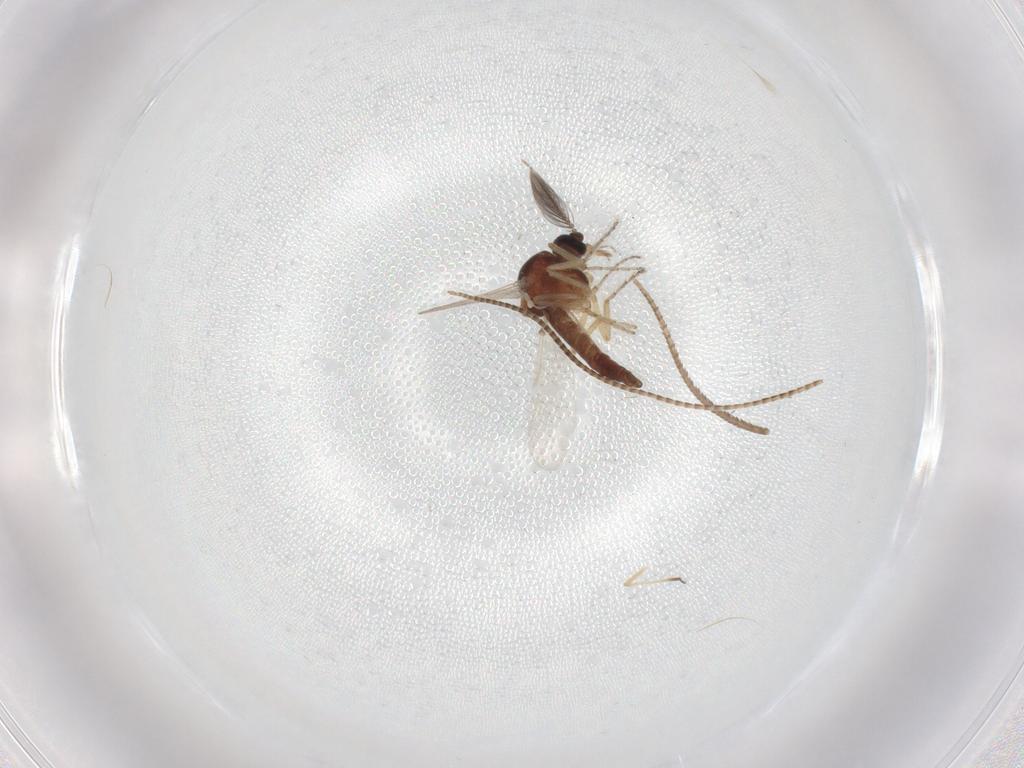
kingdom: Animalia
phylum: Arthropoda
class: Insecta
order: Diptera
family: Ceratopogonidae
